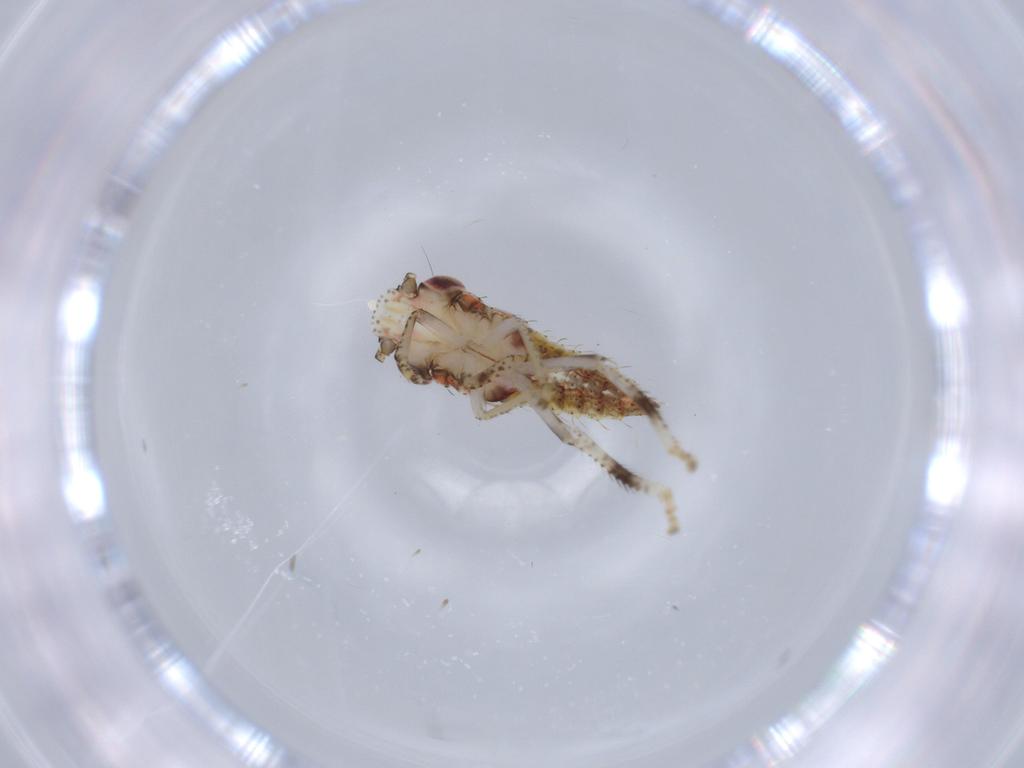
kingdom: Animalia
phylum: Arthropoda
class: Insecta
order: Hemiptera
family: Cicadellidae
